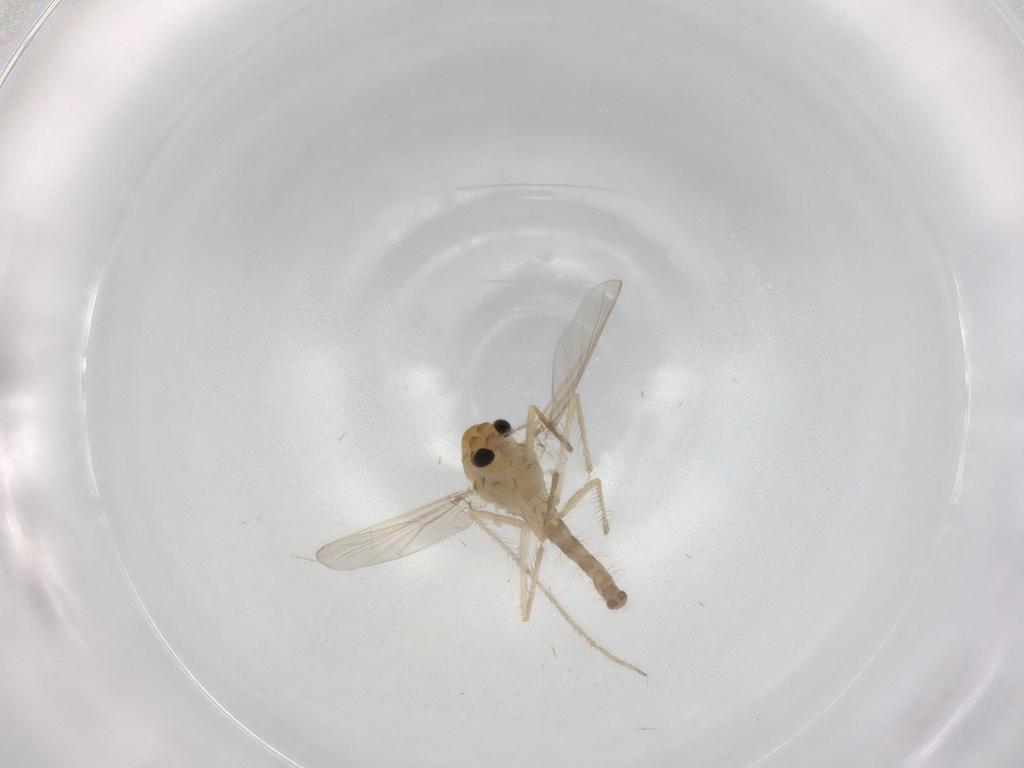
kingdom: Animalia
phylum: Arthropoda
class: Insecta
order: Diptera
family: Chironomidae
